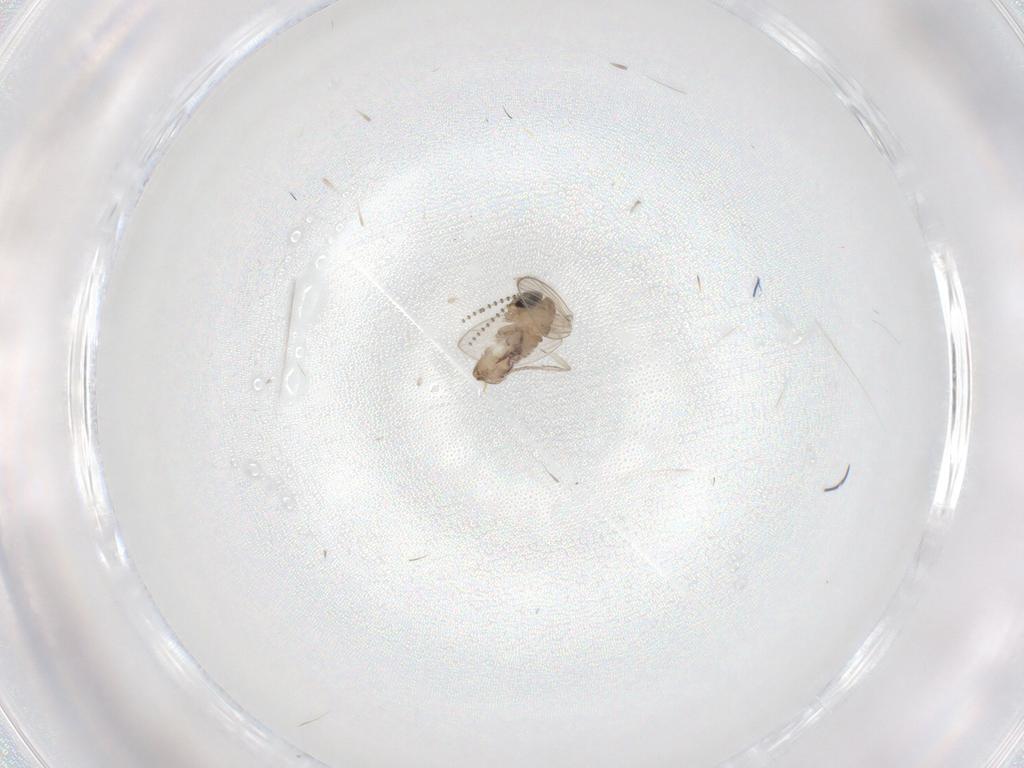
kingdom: Animalia
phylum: Arthropoda
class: Insecta
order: Diptera
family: Psychodidae
